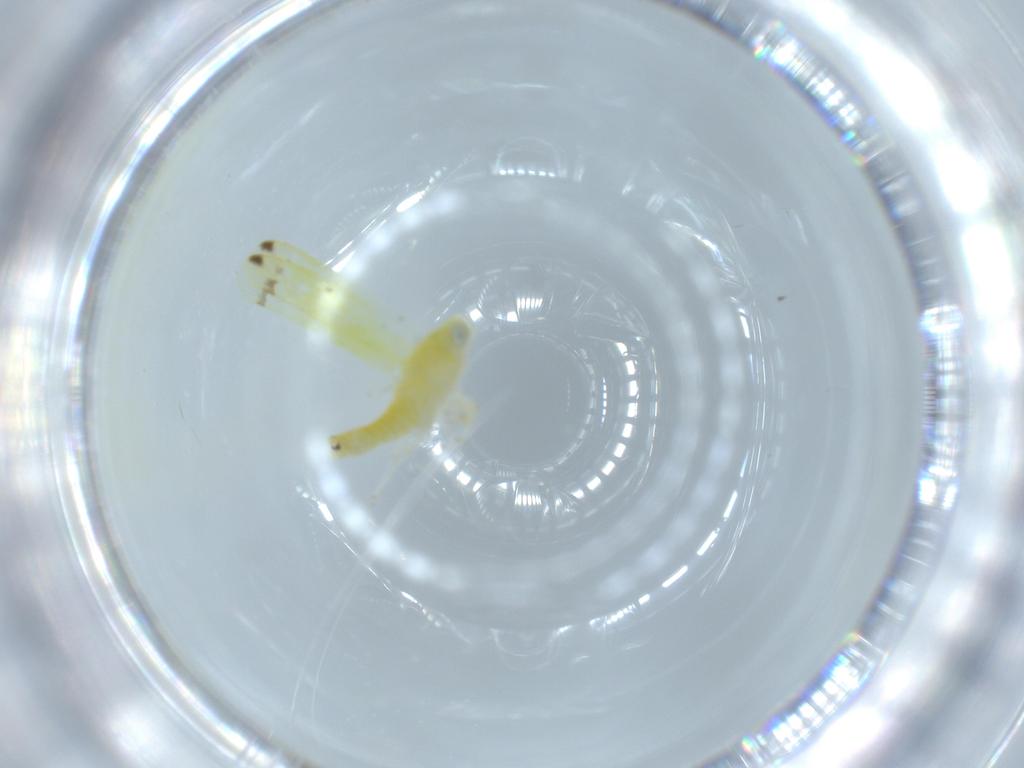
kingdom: Animalia
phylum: Arthropoda
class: Insecta
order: Hemiptera
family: Cicadellidae
